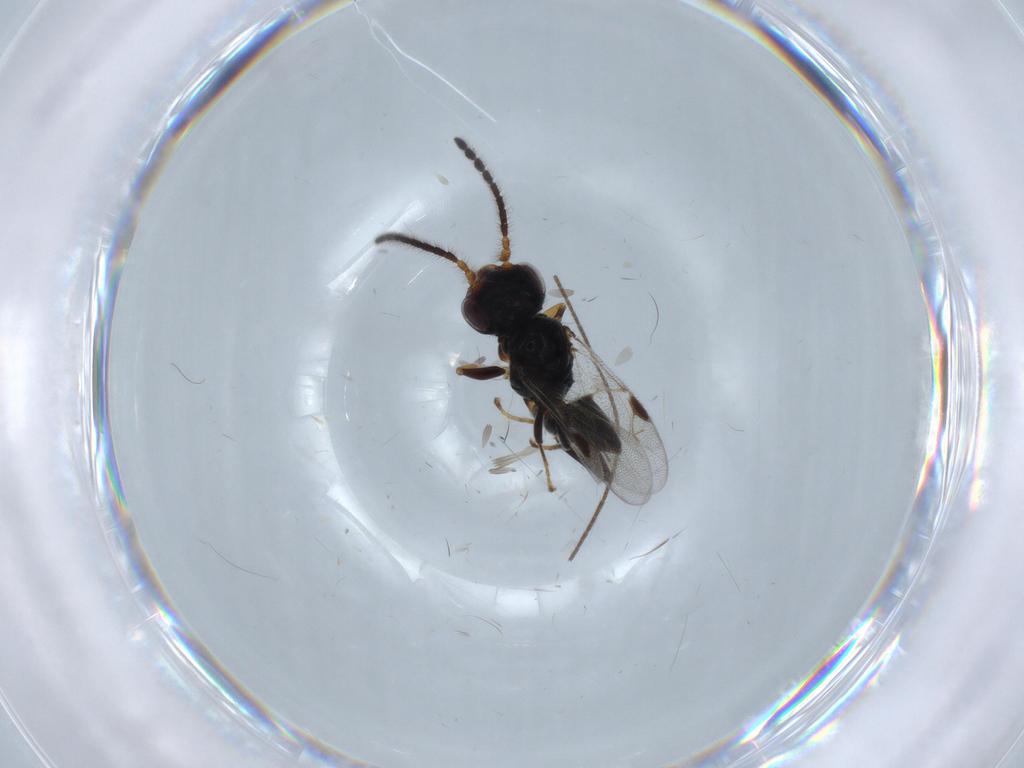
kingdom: Animalia
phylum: Arthropoda
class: Insecta
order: Hymenoptera
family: Dryinidae
